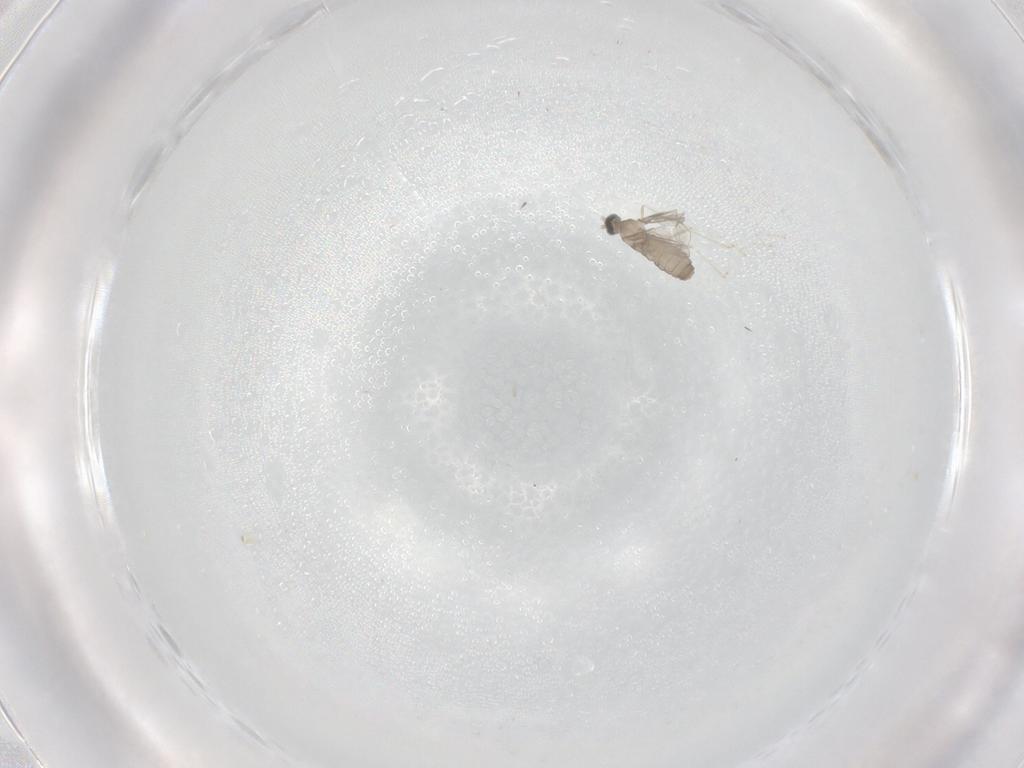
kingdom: Animalia
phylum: Arthropoda
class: Insecta
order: Diptera
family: Cecidomyiidae
